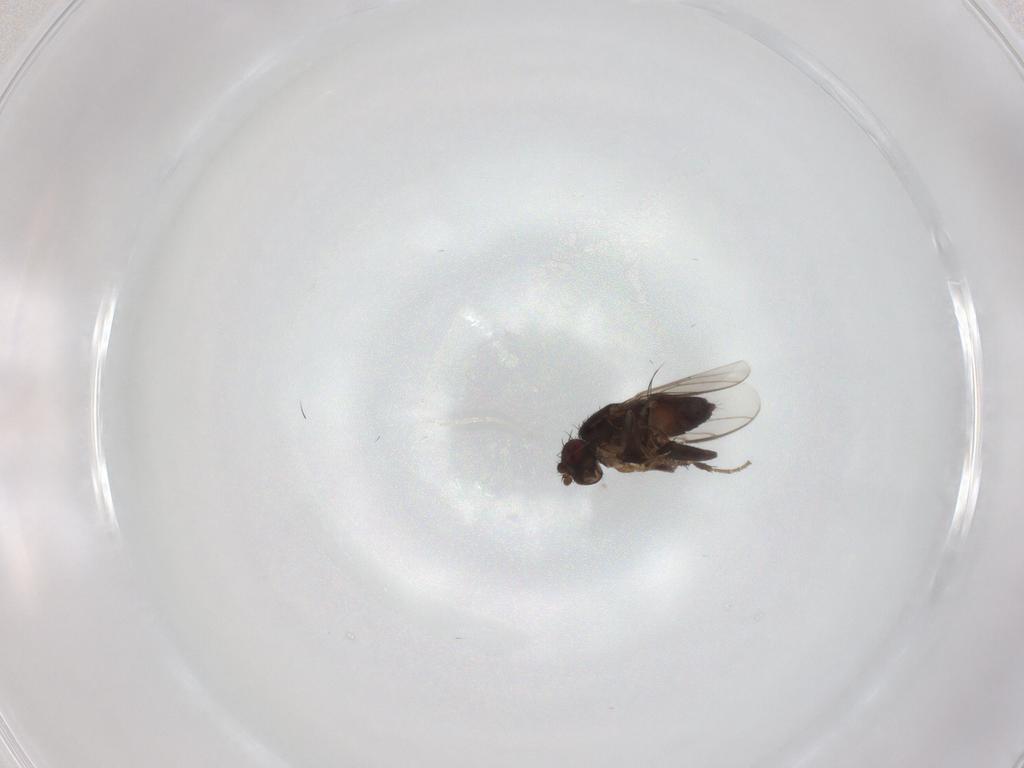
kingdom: Animalia
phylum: Arthropoda
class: Insecta
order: Diptera
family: Sphaeroceridae
